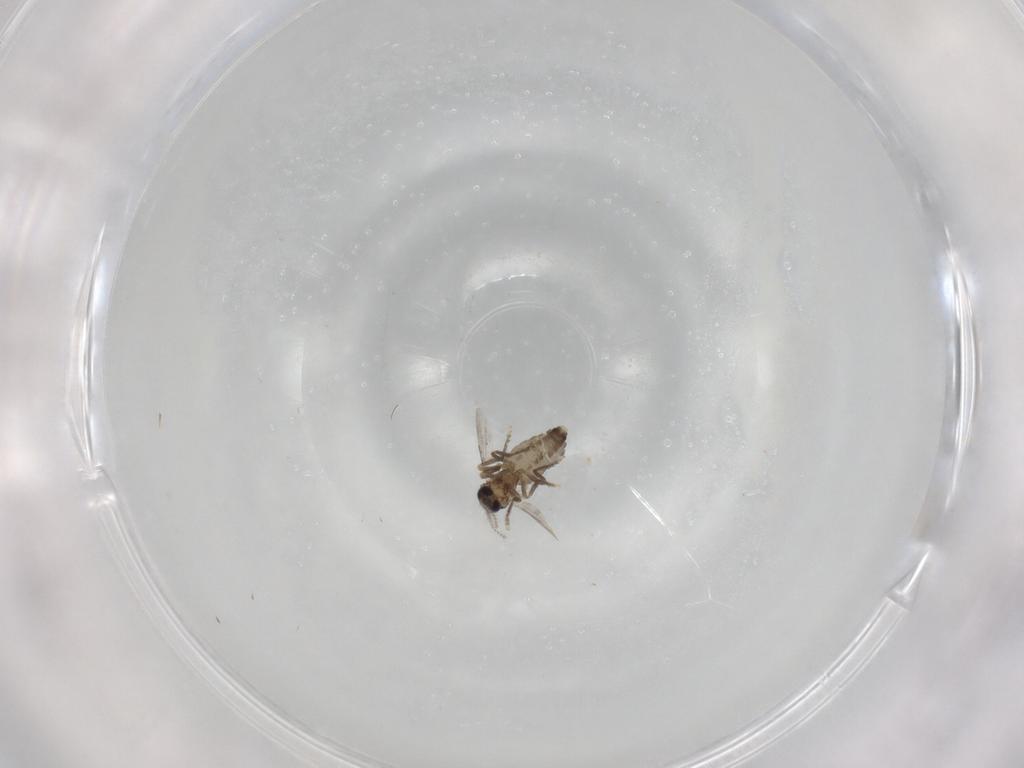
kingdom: Animalia
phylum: Arthropoda
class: Insecta
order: Diptera
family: Ceratopogonidae
